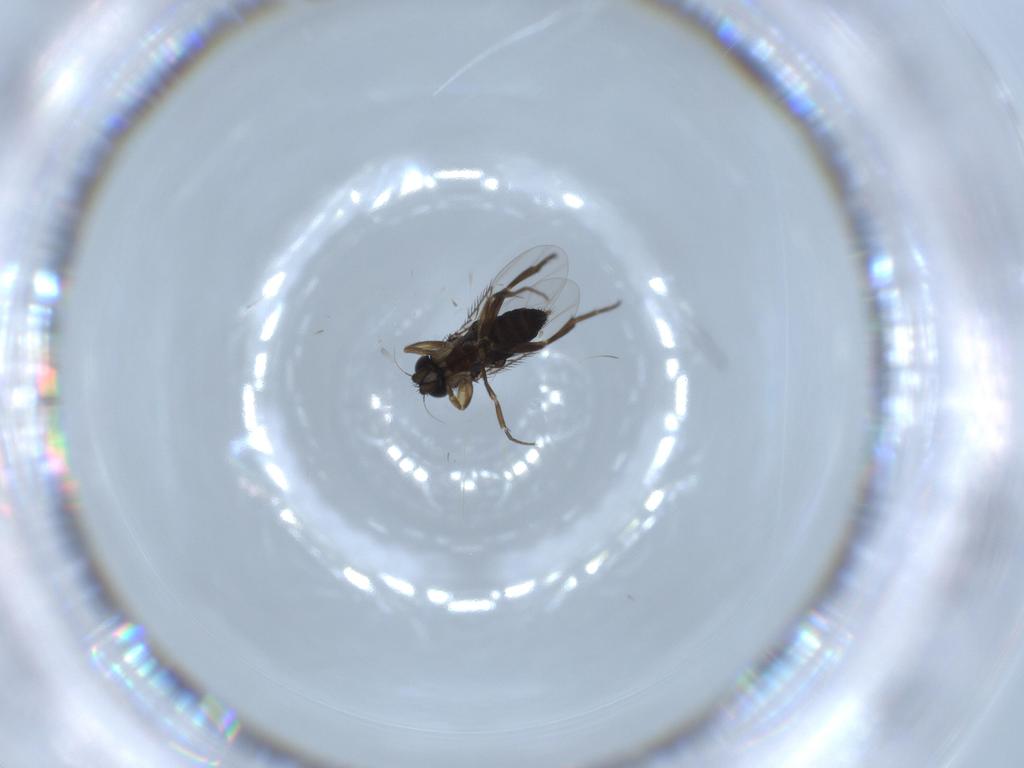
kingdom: Animalia
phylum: Arthropoda
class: Insecta
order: Diptera
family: Phoridae
